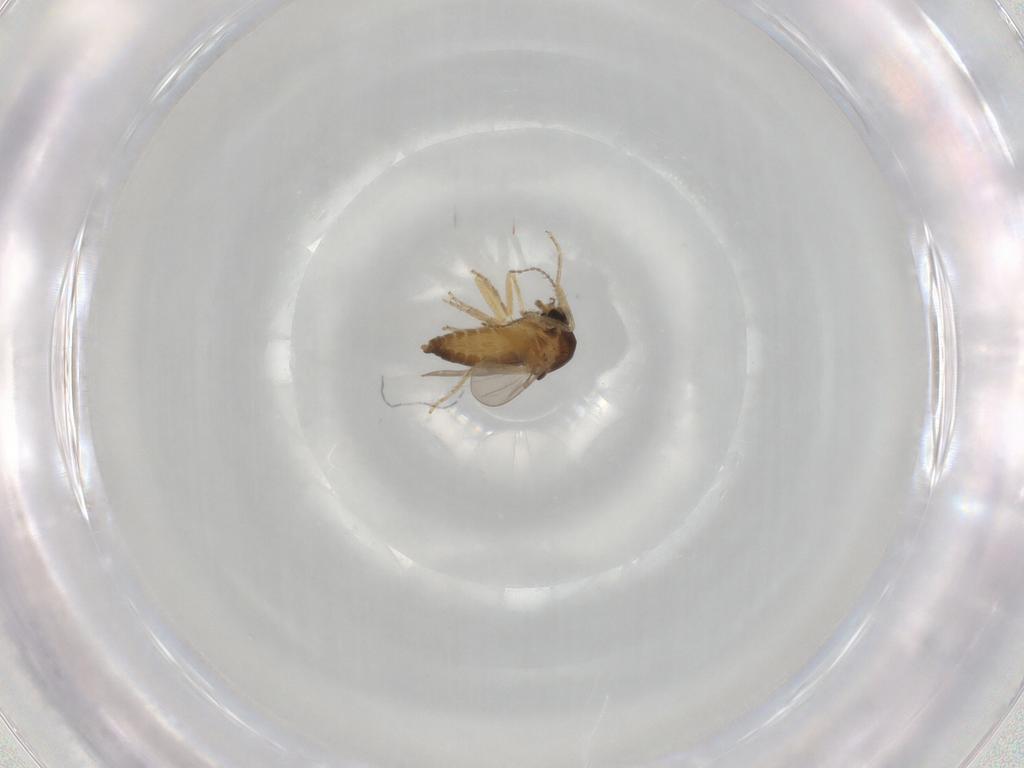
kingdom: Animalia
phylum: Arthropoda
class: Insecta
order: Diptera
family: Ceratopogonidae
